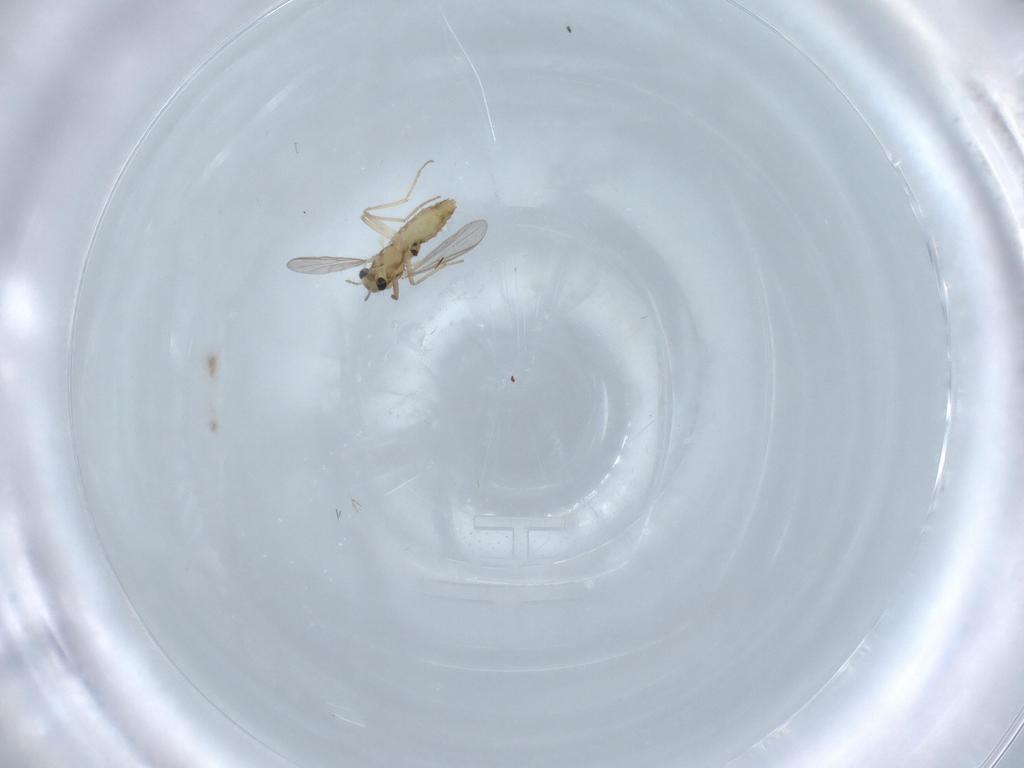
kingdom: Animalia
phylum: Arthropoda
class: Insecta
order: Diptera
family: Chironomidae
